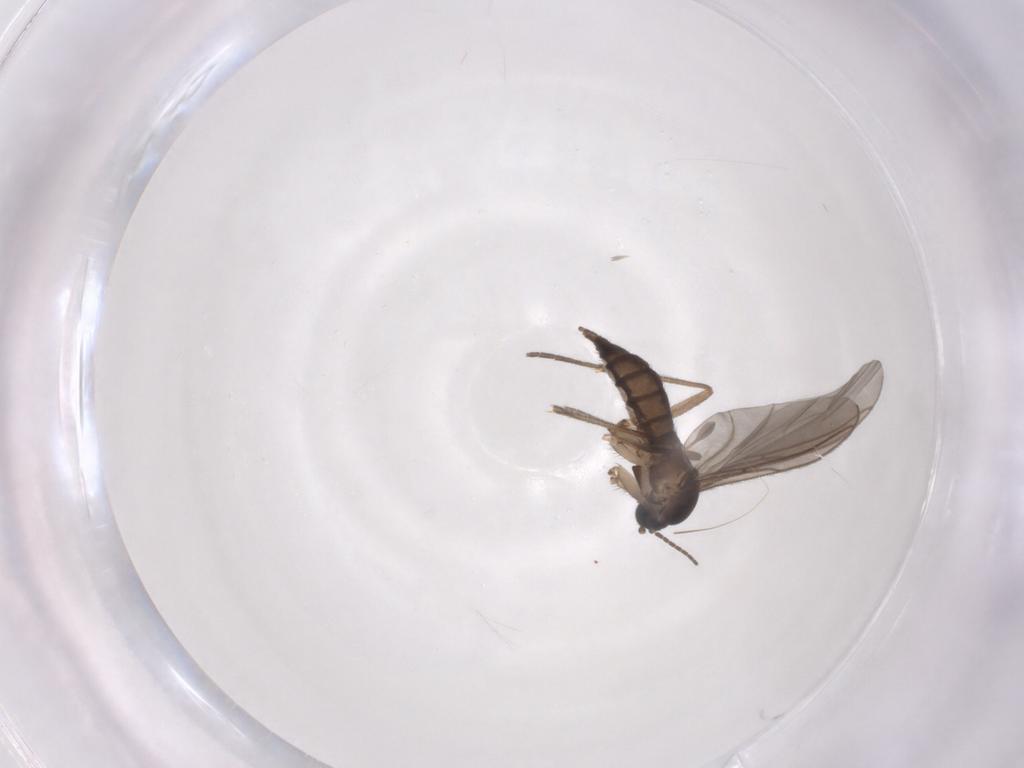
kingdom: Animalia
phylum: Arthropoda
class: Insecta
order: Diptera
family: Sciaridae
